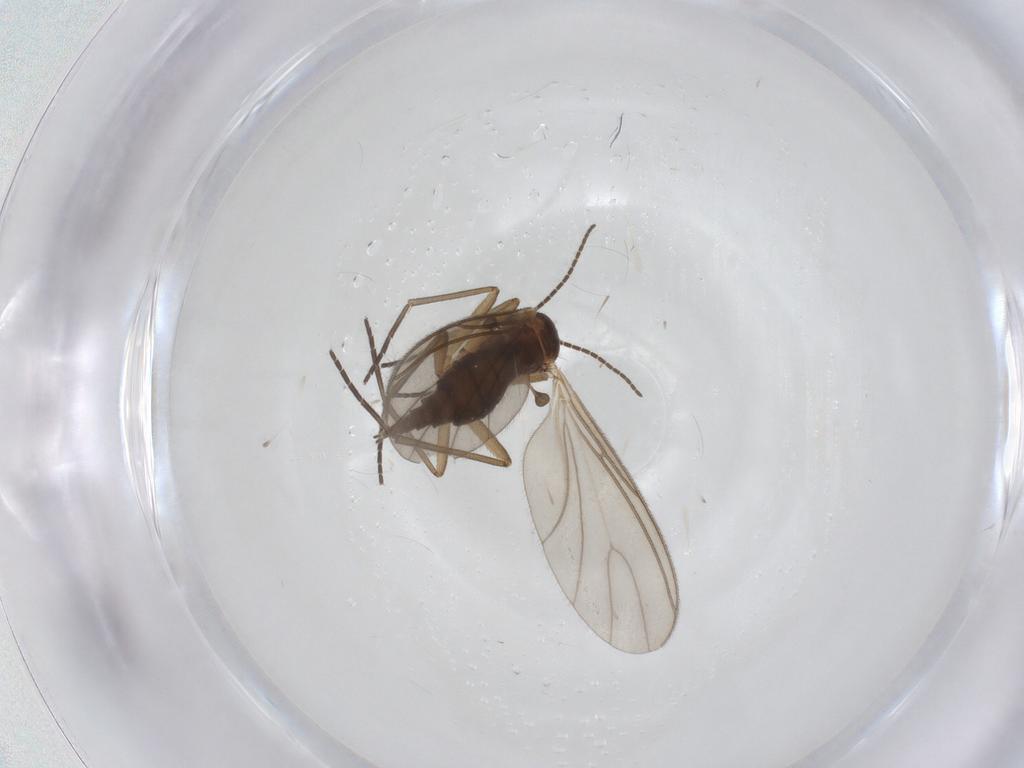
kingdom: Animalia
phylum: Arthropoda
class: Insecta
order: Diptera
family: Sciaridae
